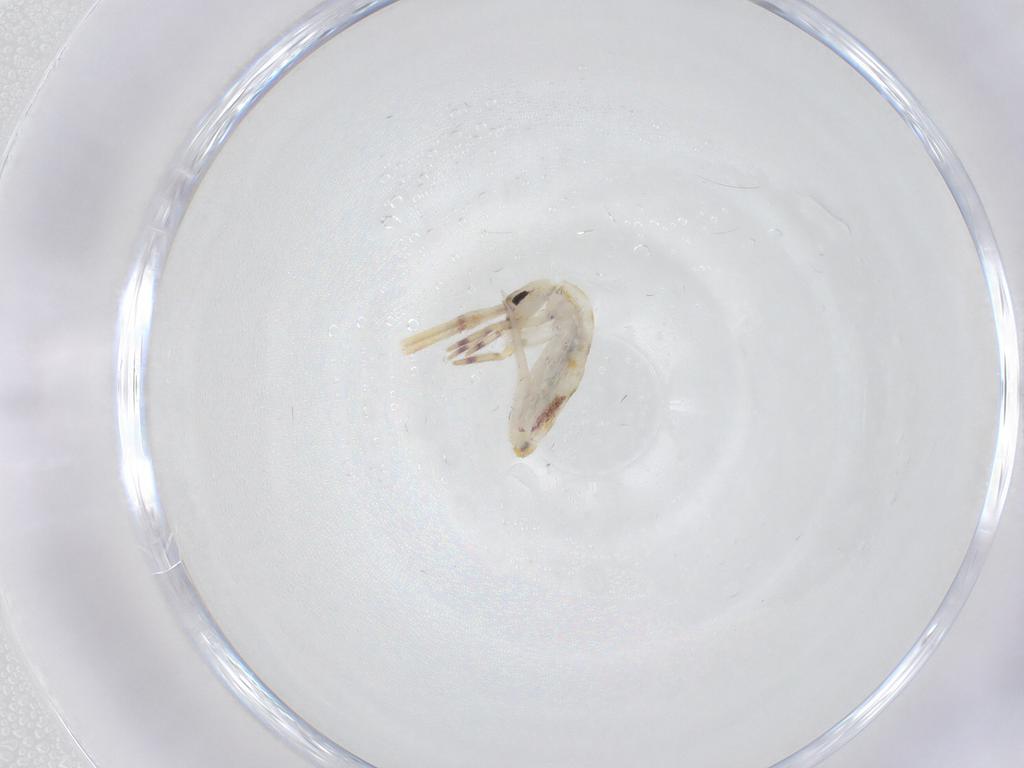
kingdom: Animalia
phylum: Arthropoda
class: Collembola
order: Entomobryomorpha
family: Entomobryidae
